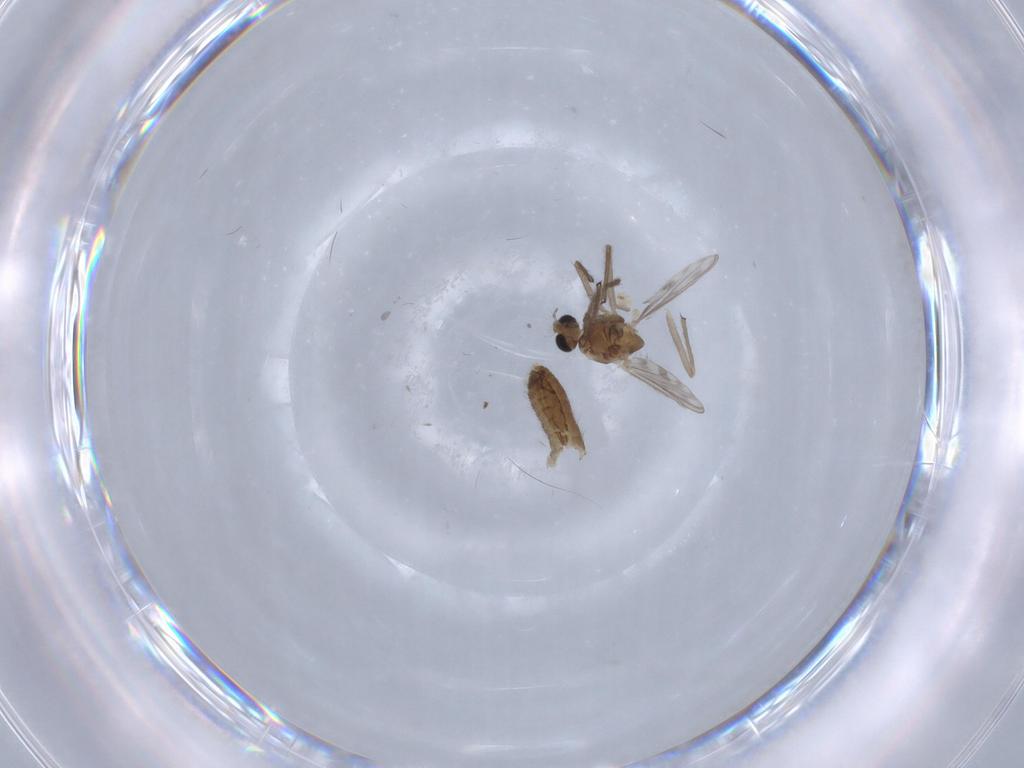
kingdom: Animalia
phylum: Arthropoda
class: Insecta
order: Diptera
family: Chironomidae
